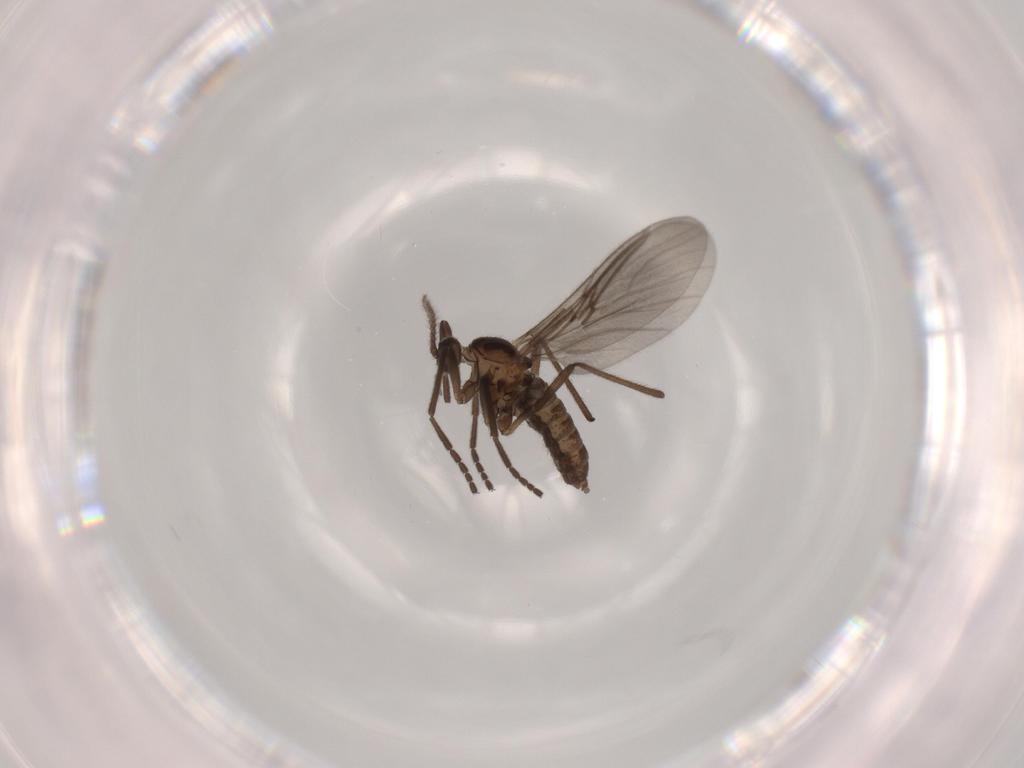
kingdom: Animalia
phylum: Arthropoda
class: Insecta
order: Diptera
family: Cecidomyiidae
